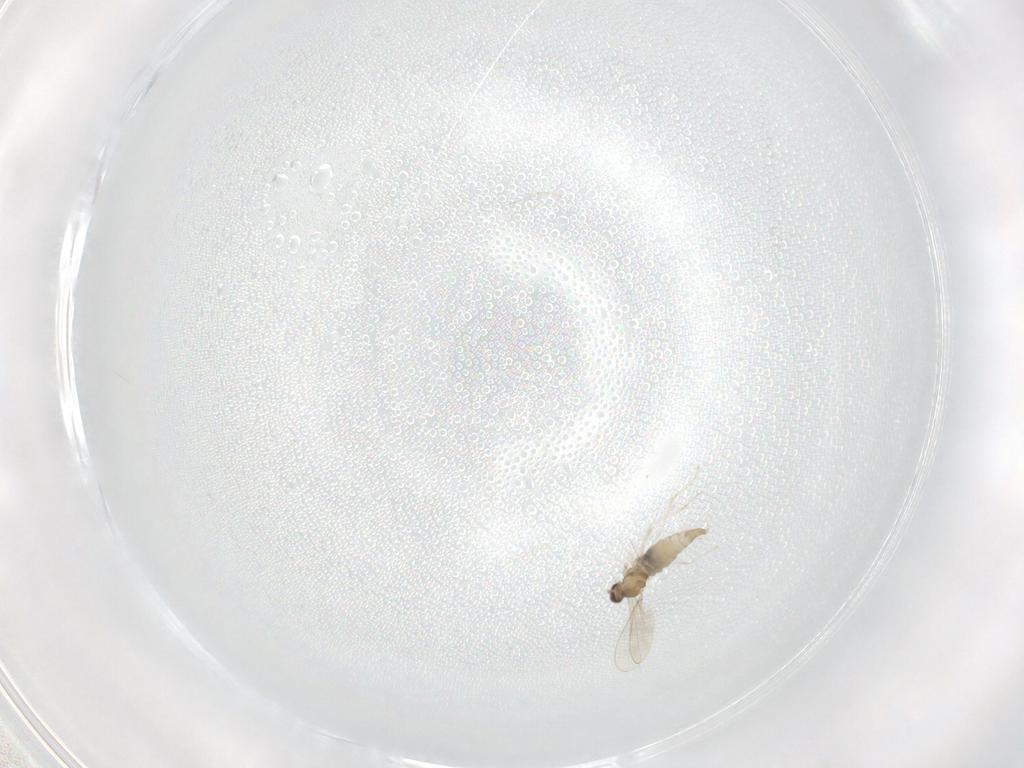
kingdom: Animalia
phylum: Arthropoda
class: Insecta
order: Diptera
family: Cecidomyiidae
